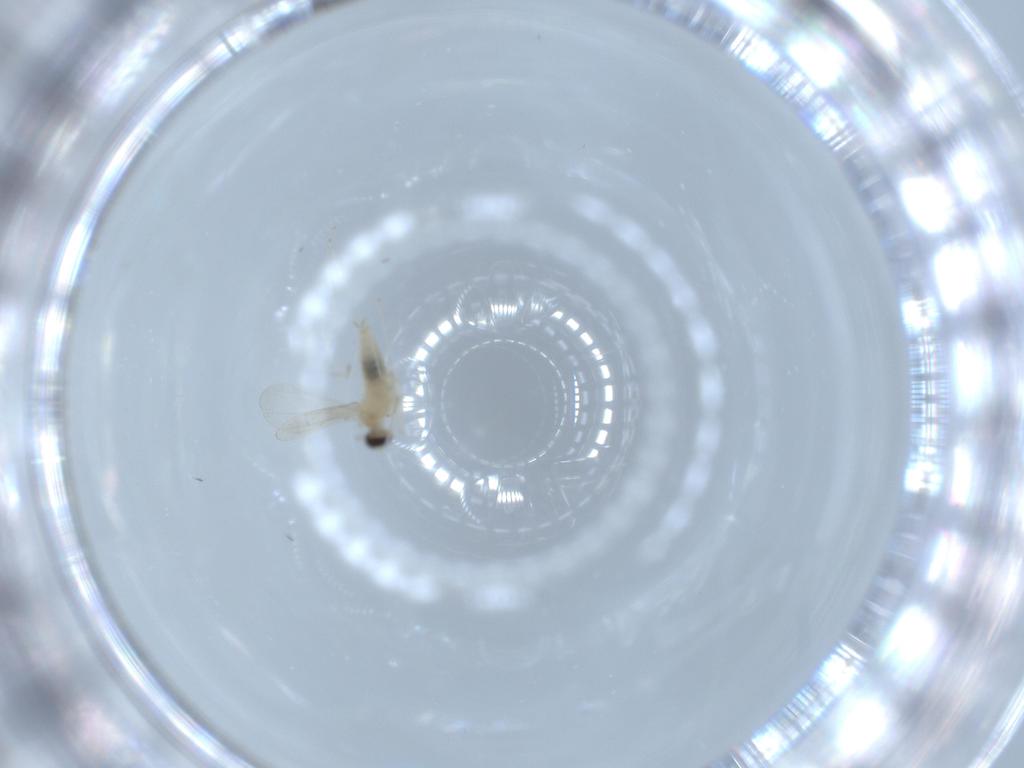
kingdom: Animalia
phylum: Arthropoda
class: Insecta
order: Diptera
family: Cecidomyiidae
